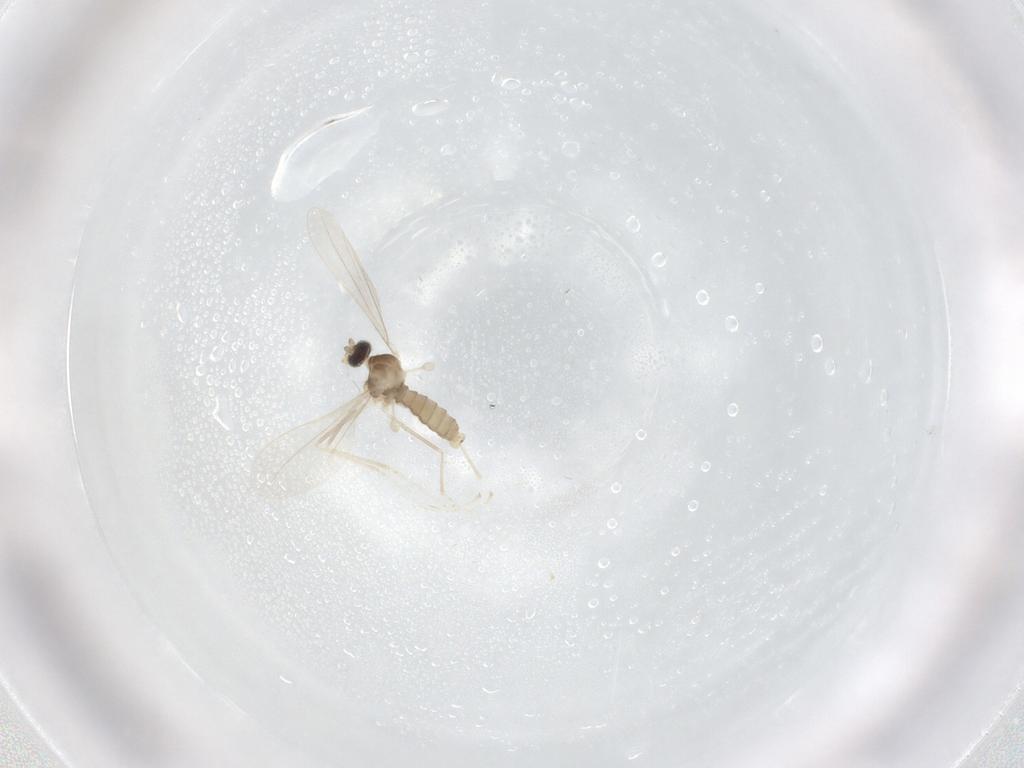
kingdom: Animalia
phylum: Arthropoda
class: Insecta
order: Diptera
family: Cecidomyiidae
